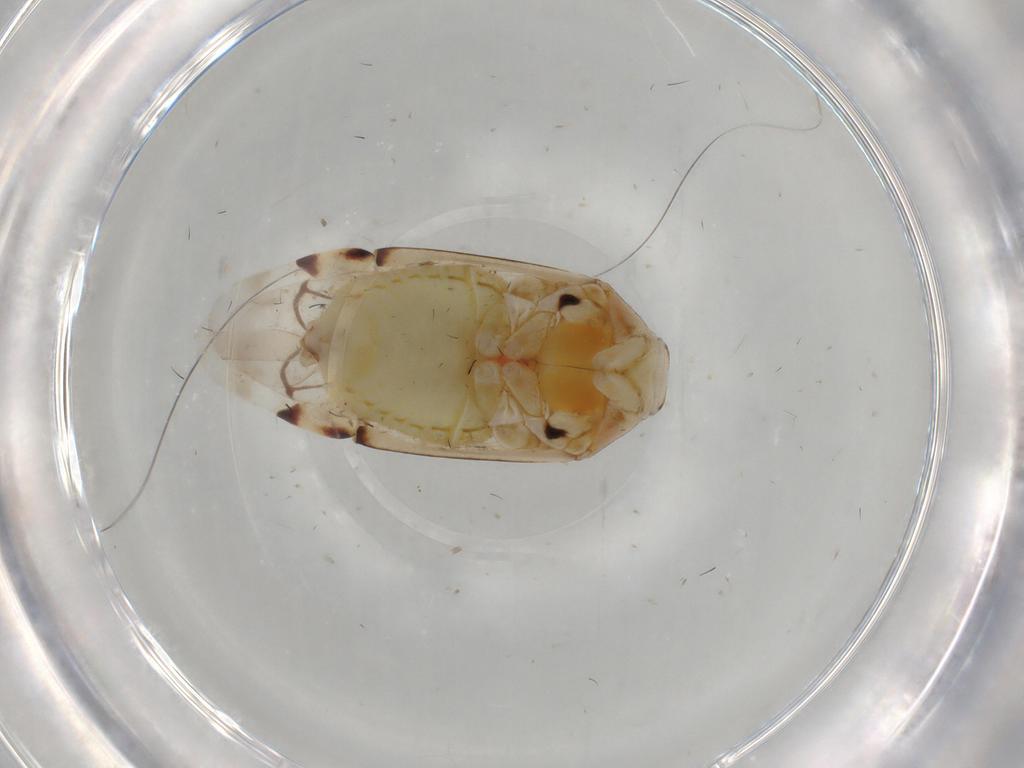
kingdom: Animalia
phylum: Arthropoda
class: Insecta
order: Hemiptera
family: Miridae
